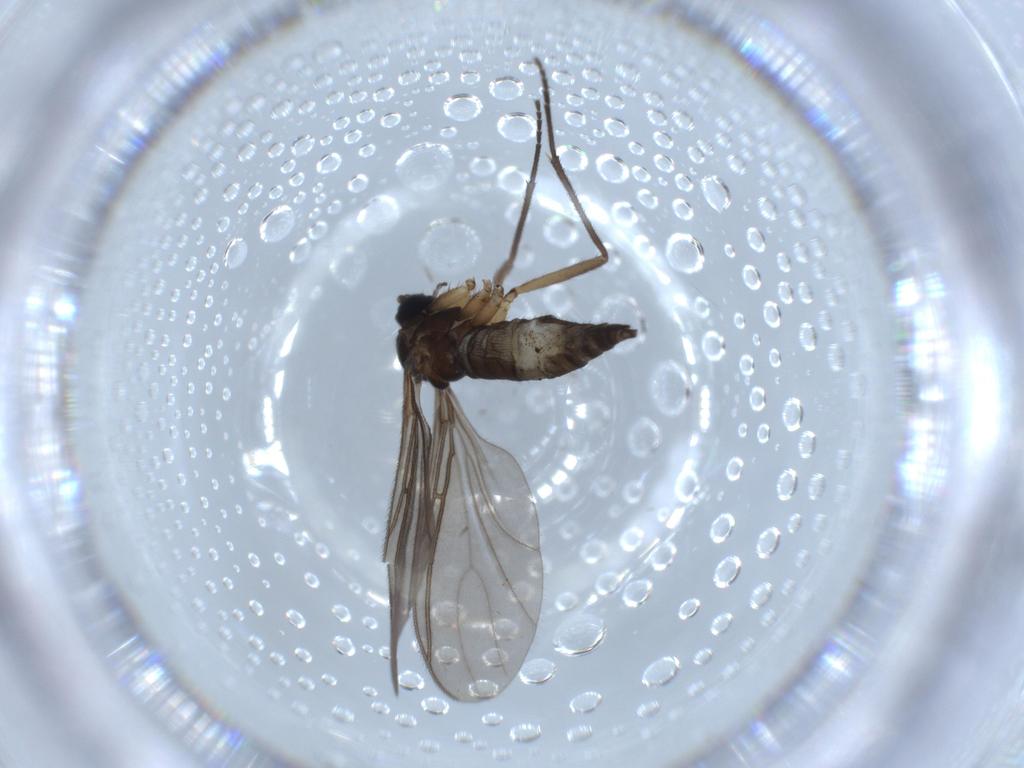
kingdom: Animalia
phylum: Arthropoda
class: Insecta
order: Diptera
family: Sciaridae
